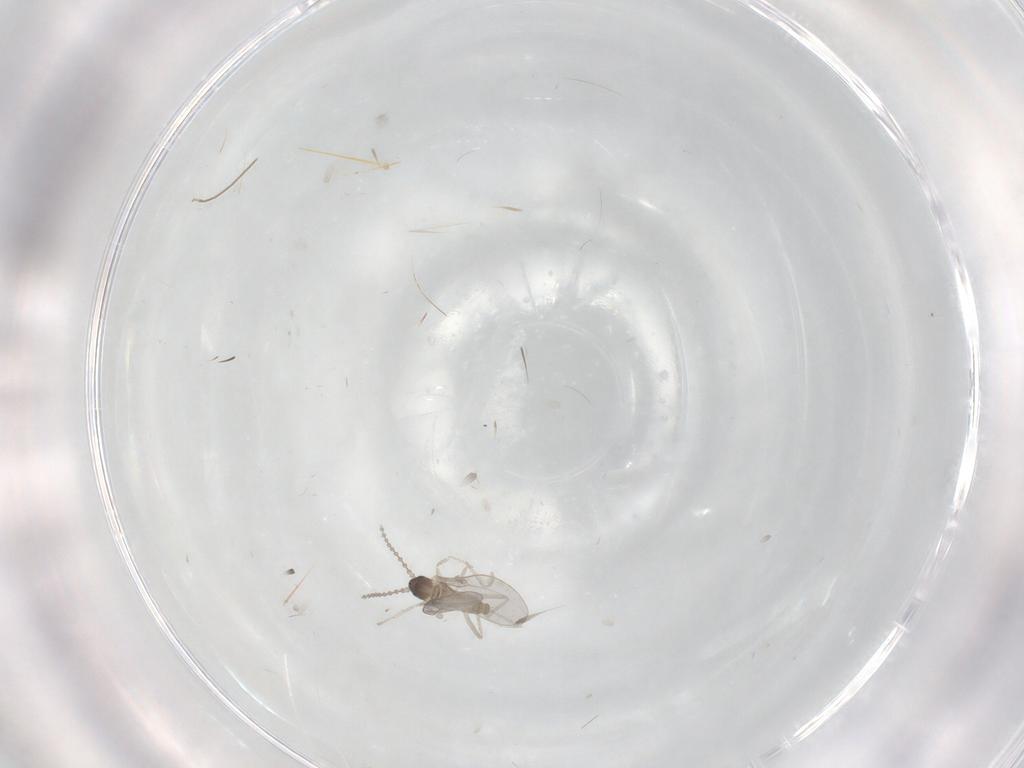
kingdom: Animalia
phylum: Arthropoda
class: Insecta
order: Diptera
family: Cecidomyiidae
